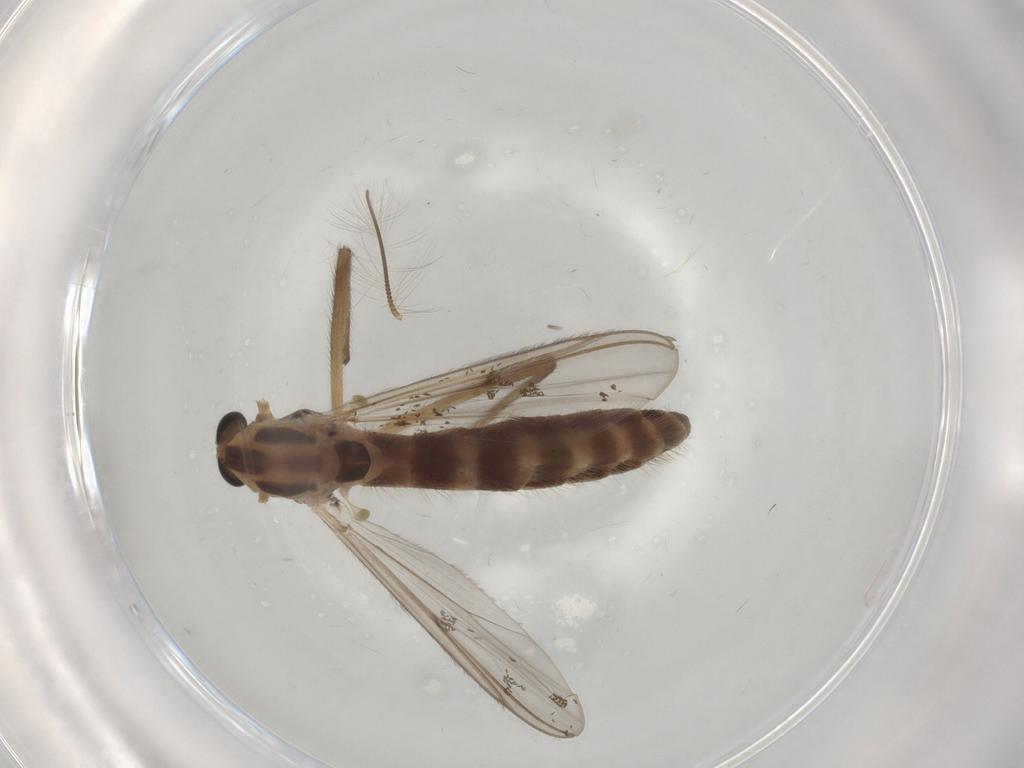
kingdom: Animalia
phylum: Arthropoda
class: Insecta
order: Diptera
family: Chironomidae
